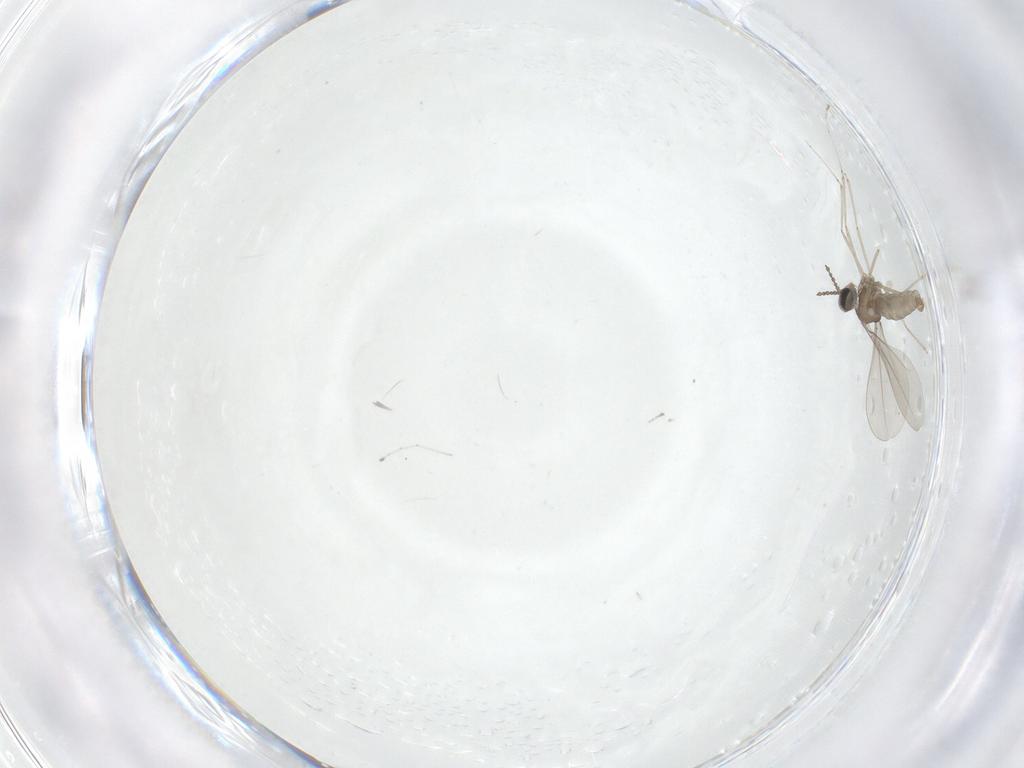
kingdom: Animalia
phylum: Arthropoda
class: Insecta
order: Diptera
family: Cecidomyiidae
